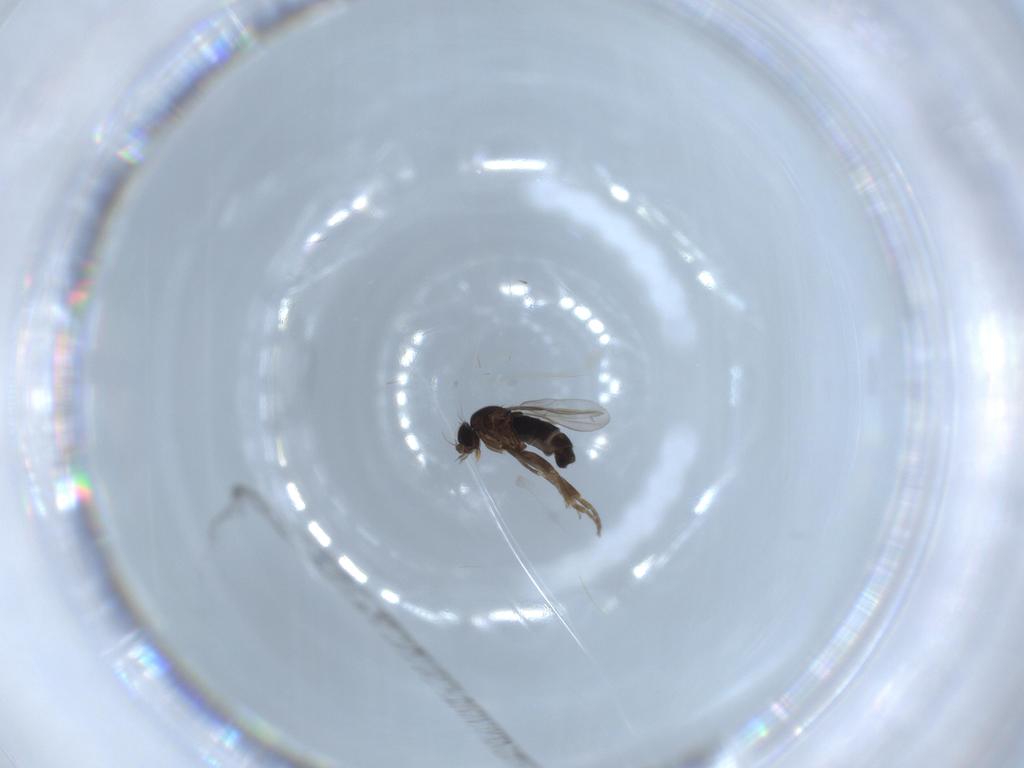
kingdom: Animalia
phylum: Arthropoda
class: Insecta
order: Diptera
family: Phoridae
